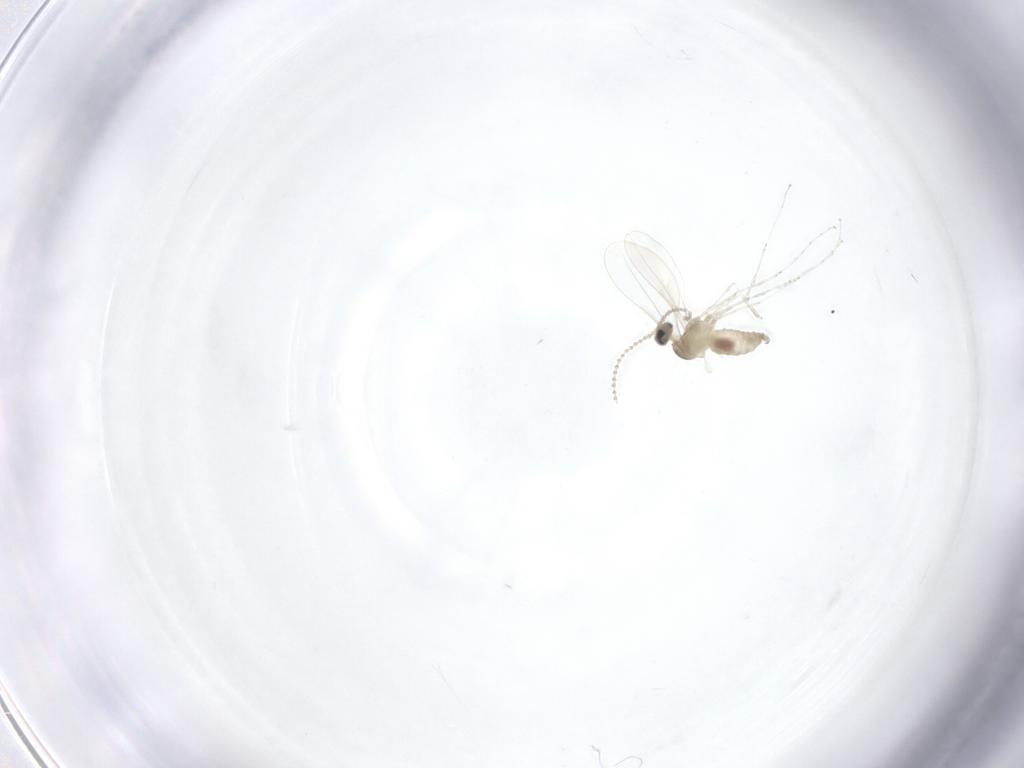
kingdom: Animalia
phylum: Arthropoda
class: Insecta
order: Diptera
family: Cecidomyiidae
